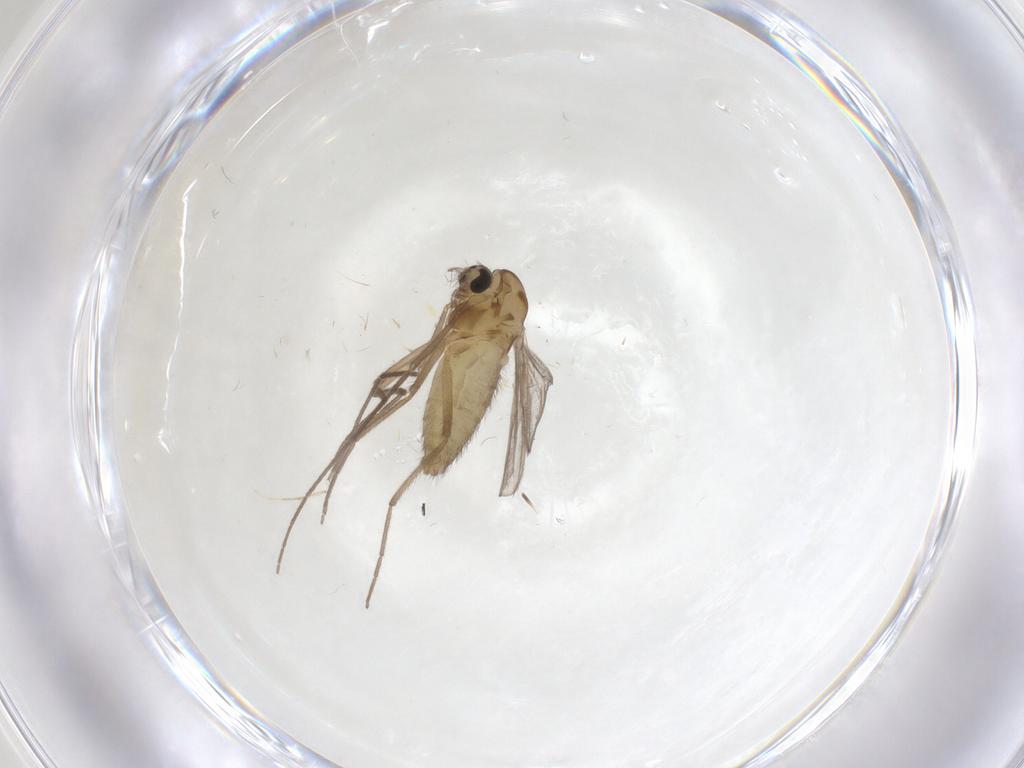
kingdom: Animalia
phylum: Arthropoda
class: Insecta
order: Diptera
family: Chironomidae
